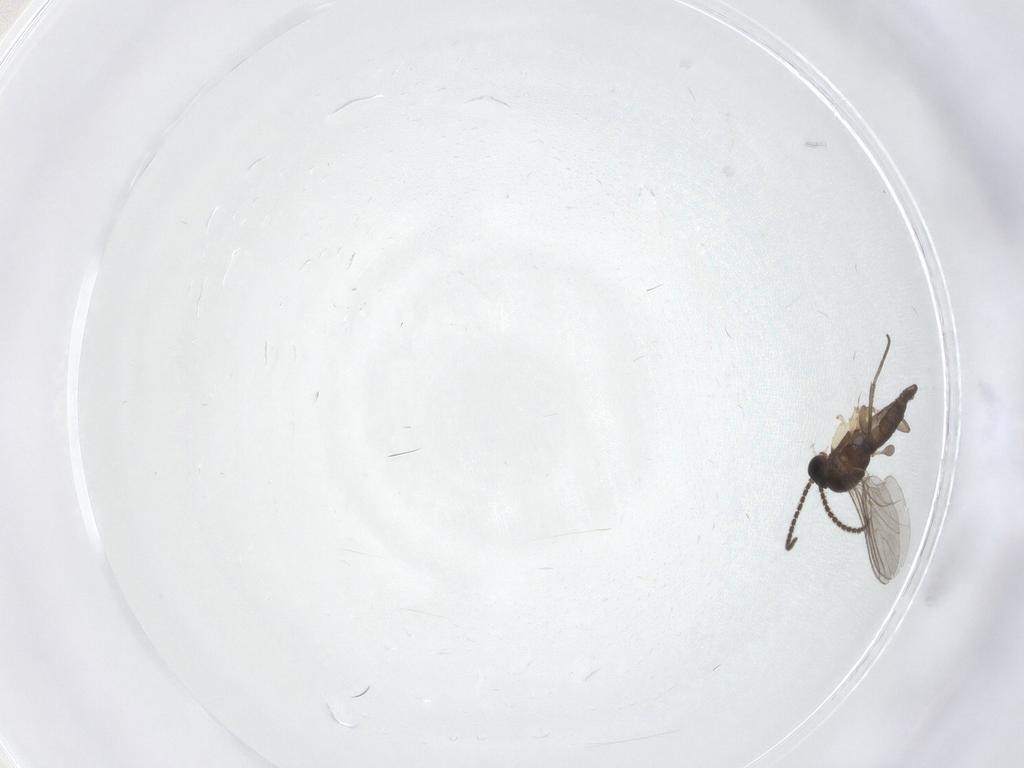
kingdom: Animalia
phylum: Arthropoda
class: Insecta
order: Diptera
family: Sciaridae
